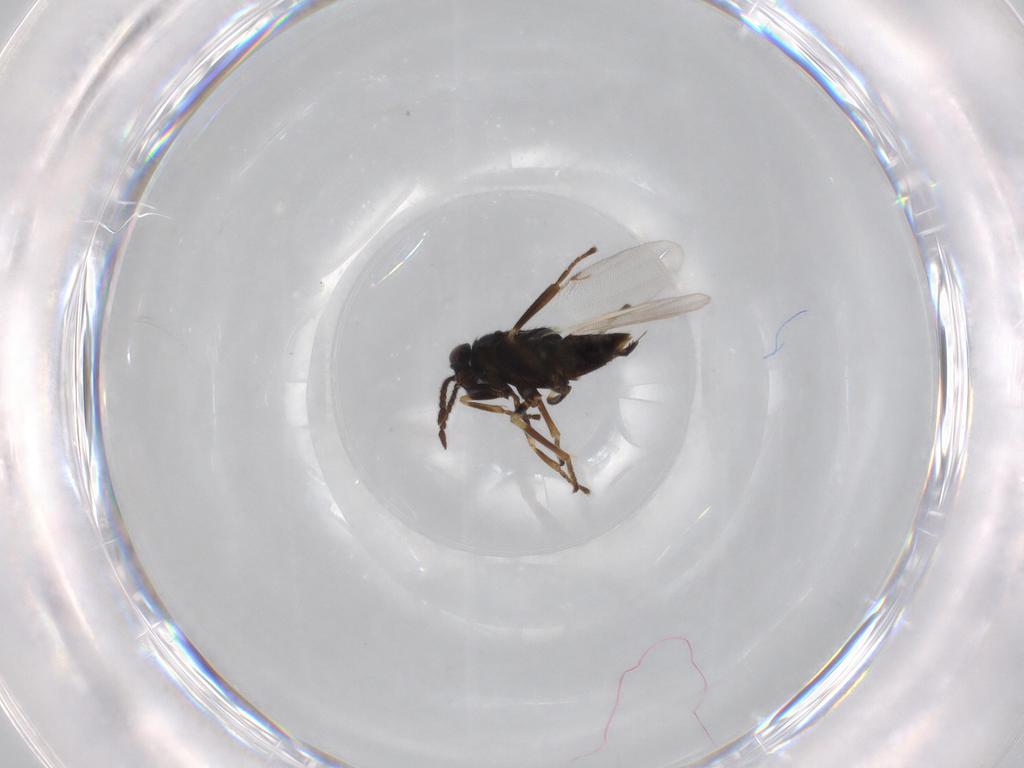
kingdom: Animalia
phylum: Arthropoda
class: Insecta
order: Hymenoptera
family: Encyrtidae
